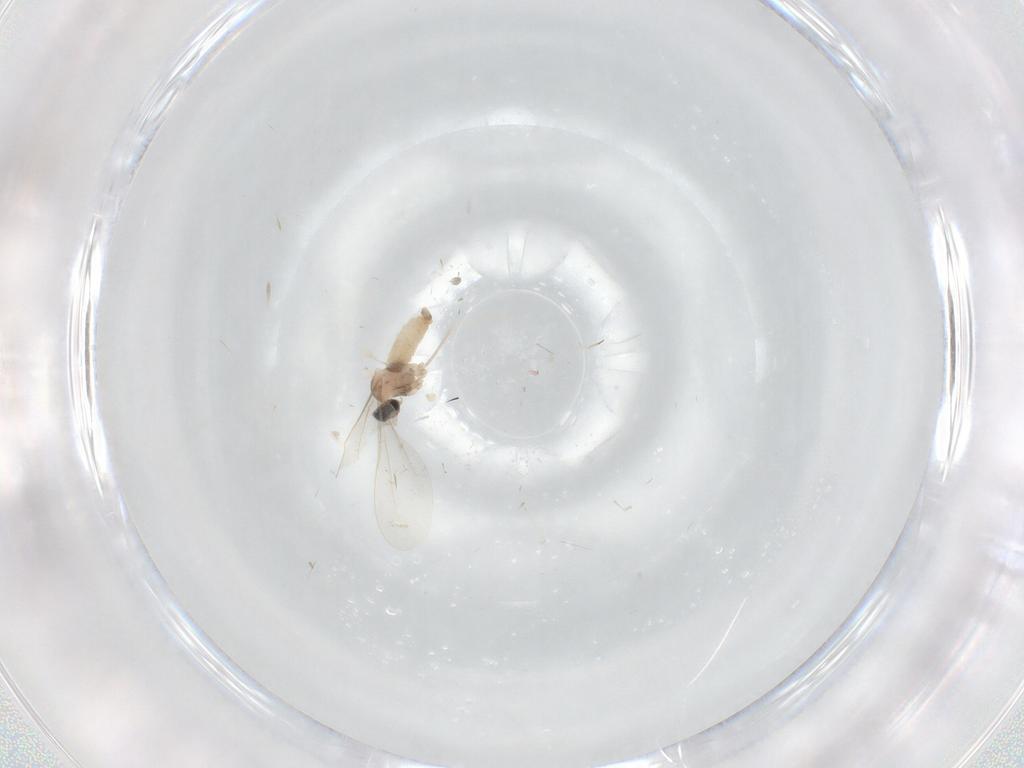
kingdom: Animalia
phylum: Arthropoda
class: Insecta
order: Diptera
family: Cecidomyiidae
